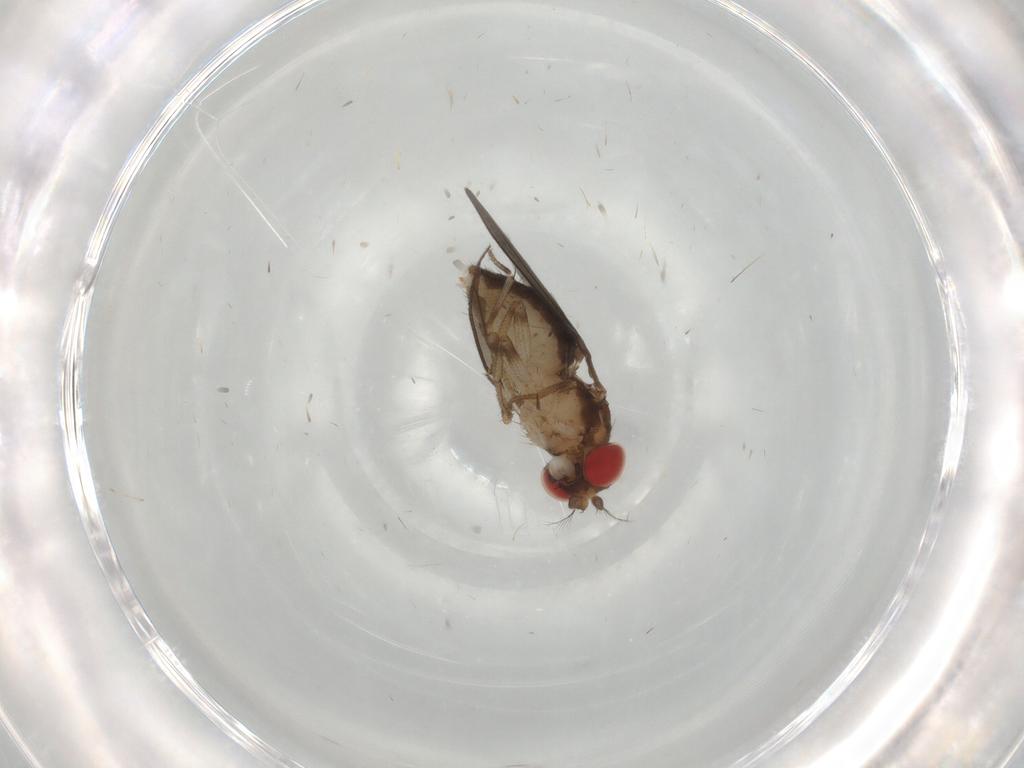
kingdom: Animalia
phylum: Arthropoda
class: Insecta
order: Diptera
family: Drosophilidae
